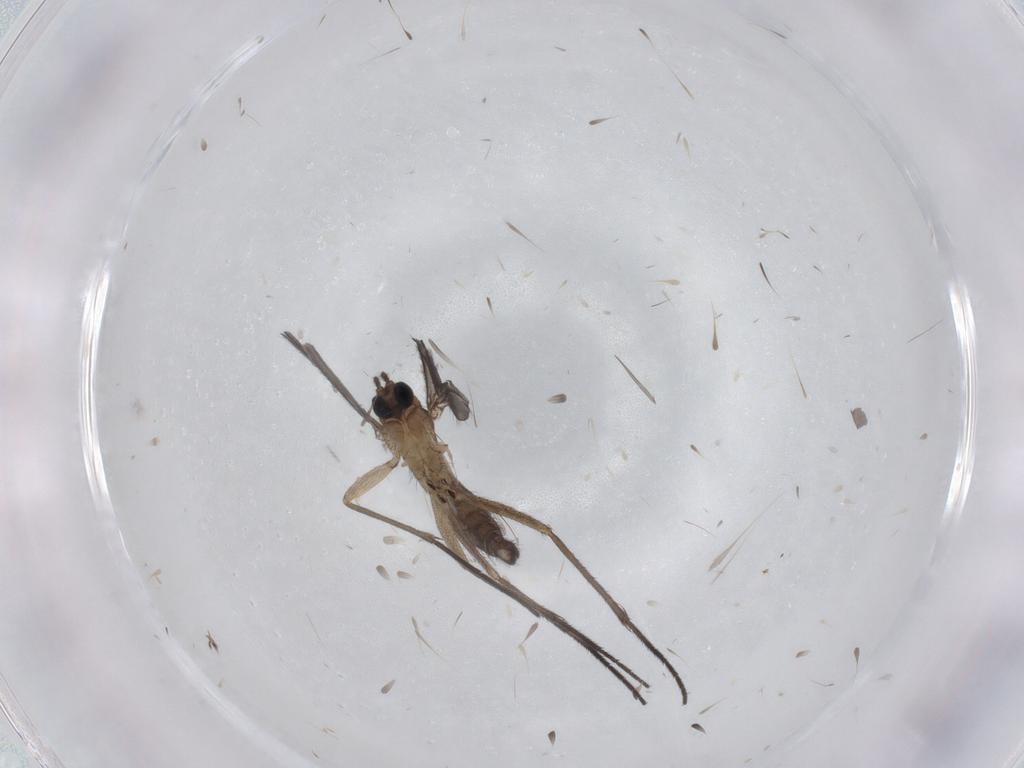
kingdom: Animalia
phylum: Arthropoda
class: Insecta
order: Diptera
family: Sciaridae
